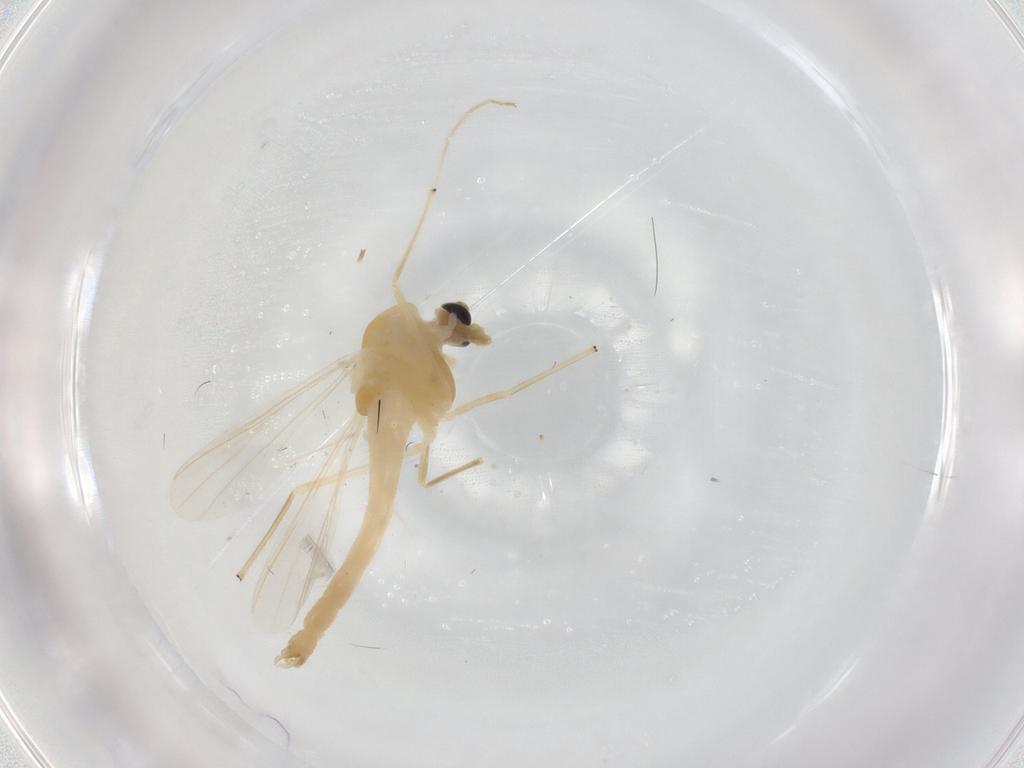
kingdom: Animalia
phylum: Arthropoda
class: Insecta
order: Diptera
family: Chironomidae
